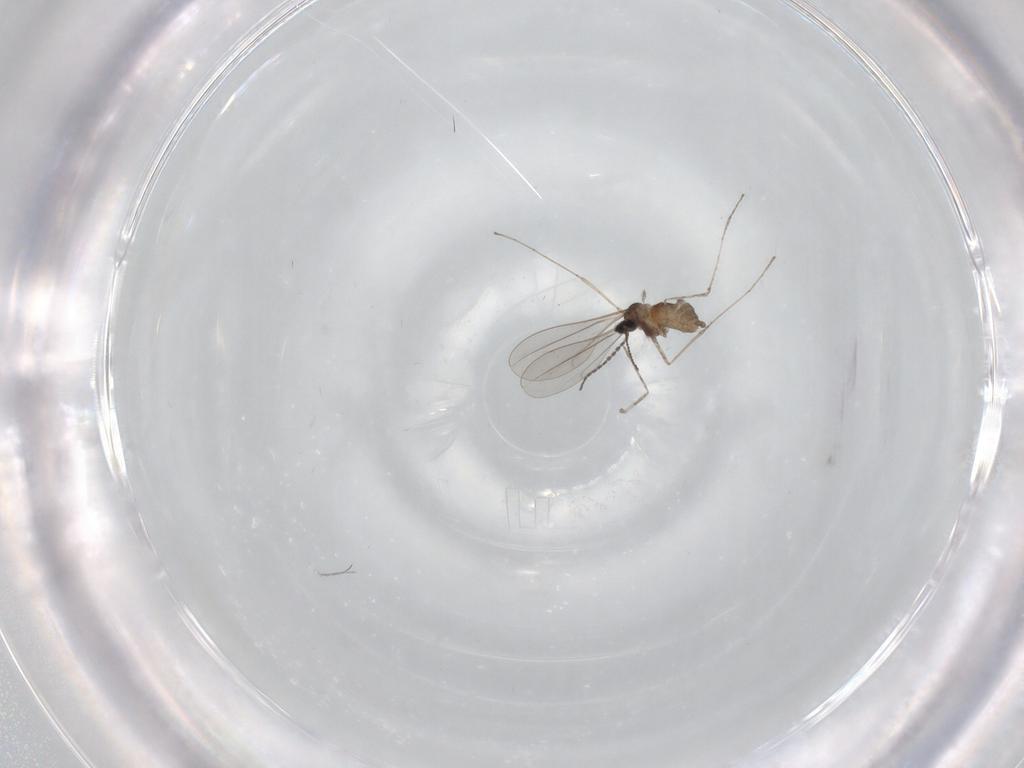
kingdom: Animalia
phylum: Arthropoda
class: Insecta
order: Diptera
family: Cecidomyiidae
